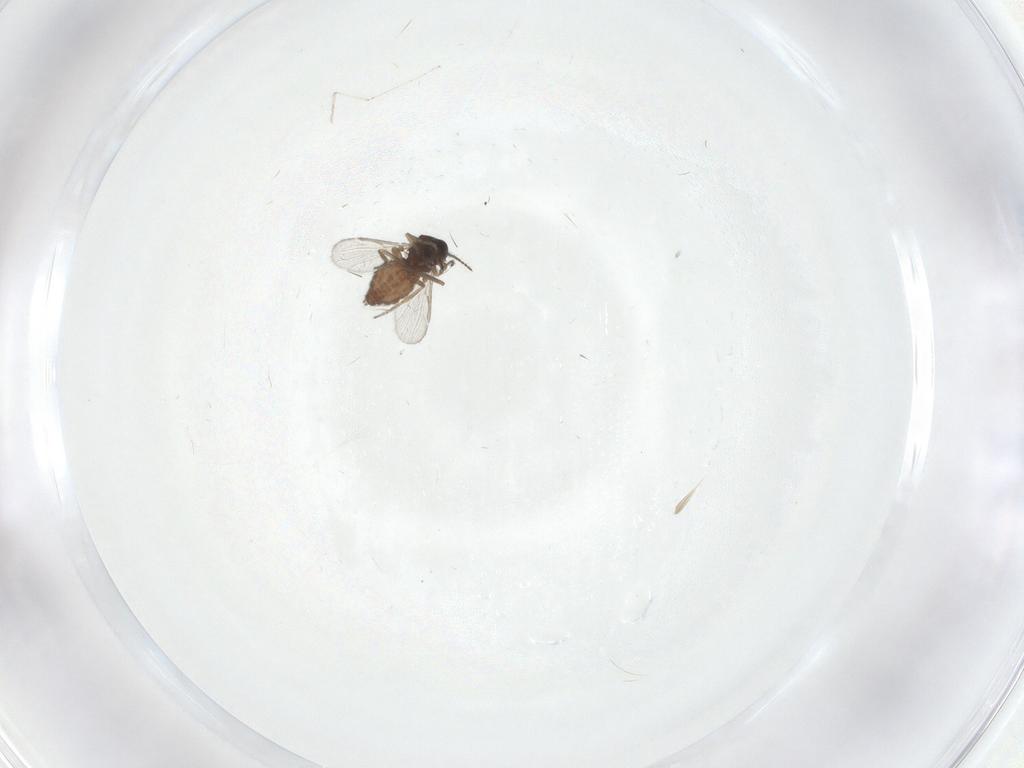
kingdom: Animalia
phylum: Arthropoda
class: Insecta
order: Diptera
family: Ceratopogonidae
